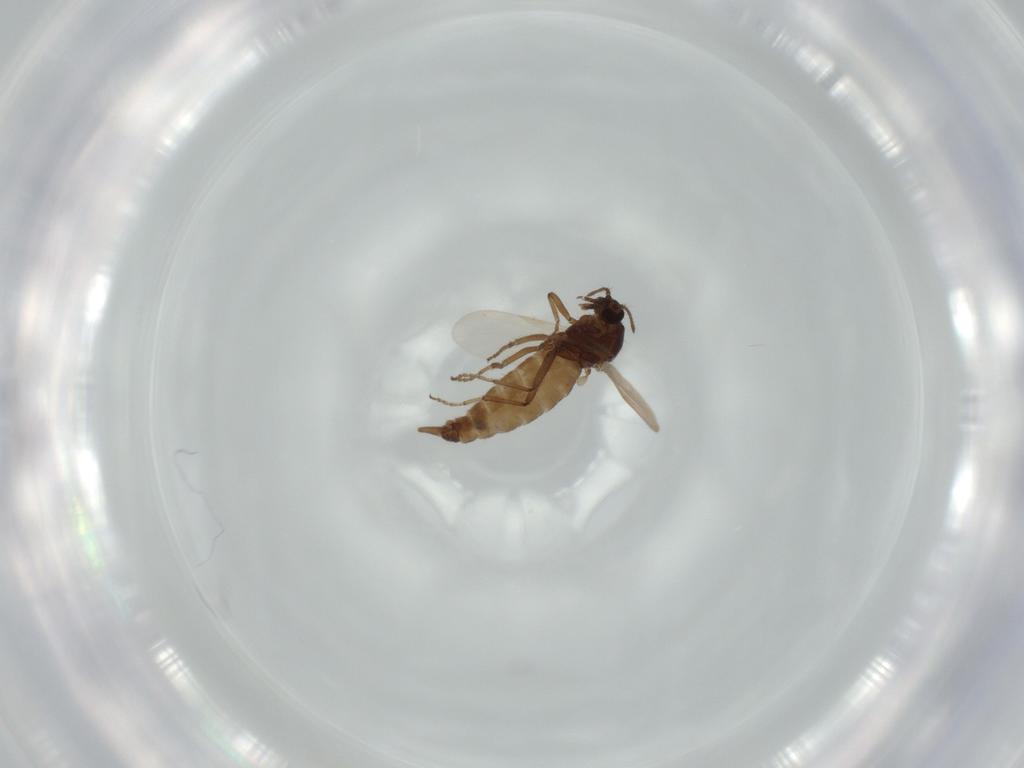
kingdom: Animalia
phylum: Arthropoda
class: Insecta
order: Diptera
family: Ceratopogonidae
